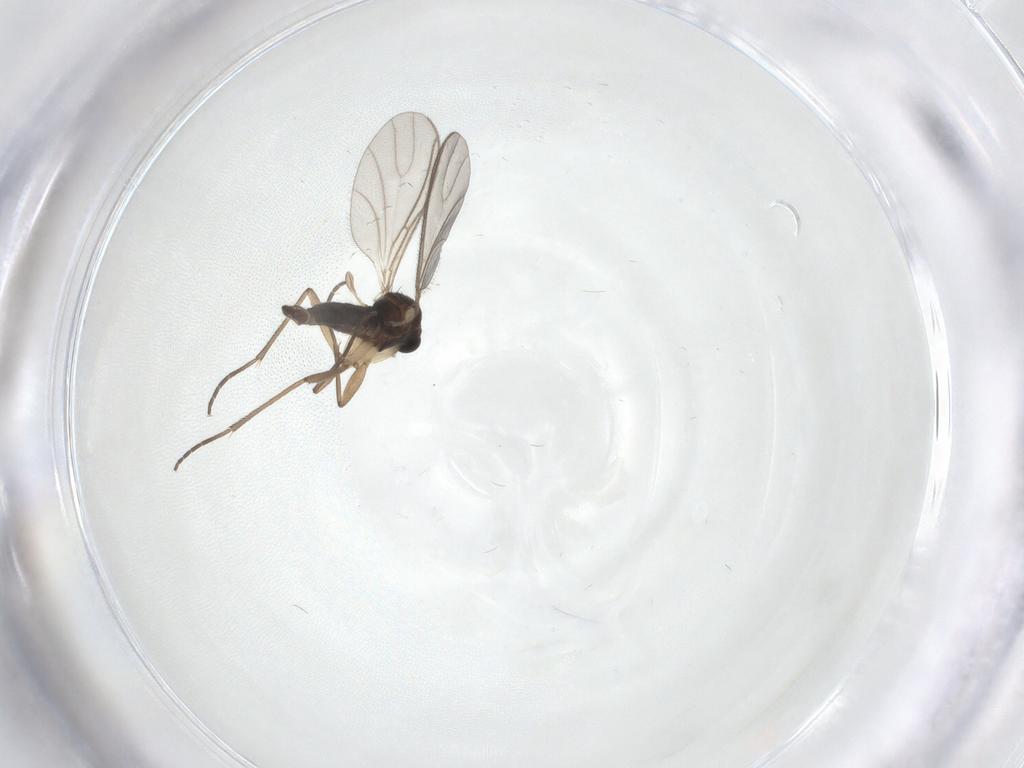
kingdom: Animalia
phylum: Arthropoda
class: Insecta
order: Diptera
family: Sciaridae
